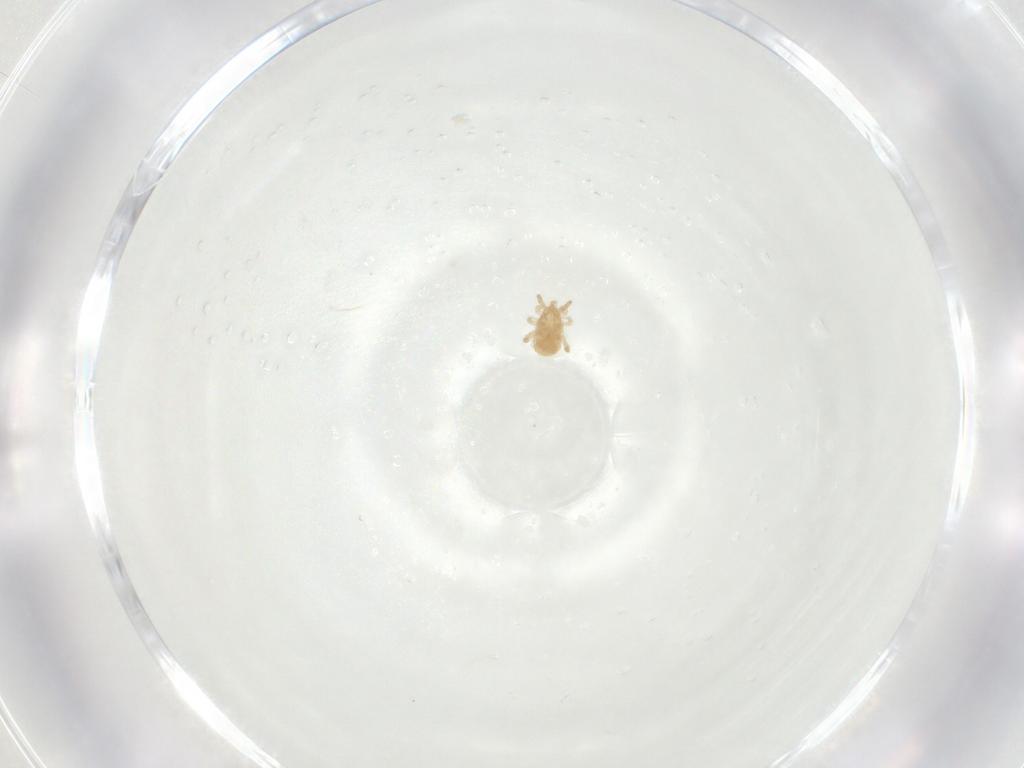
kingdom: Animalia
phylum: Arthropoda
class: Arachnida
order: Mesostigmata
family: Blattisociidae
